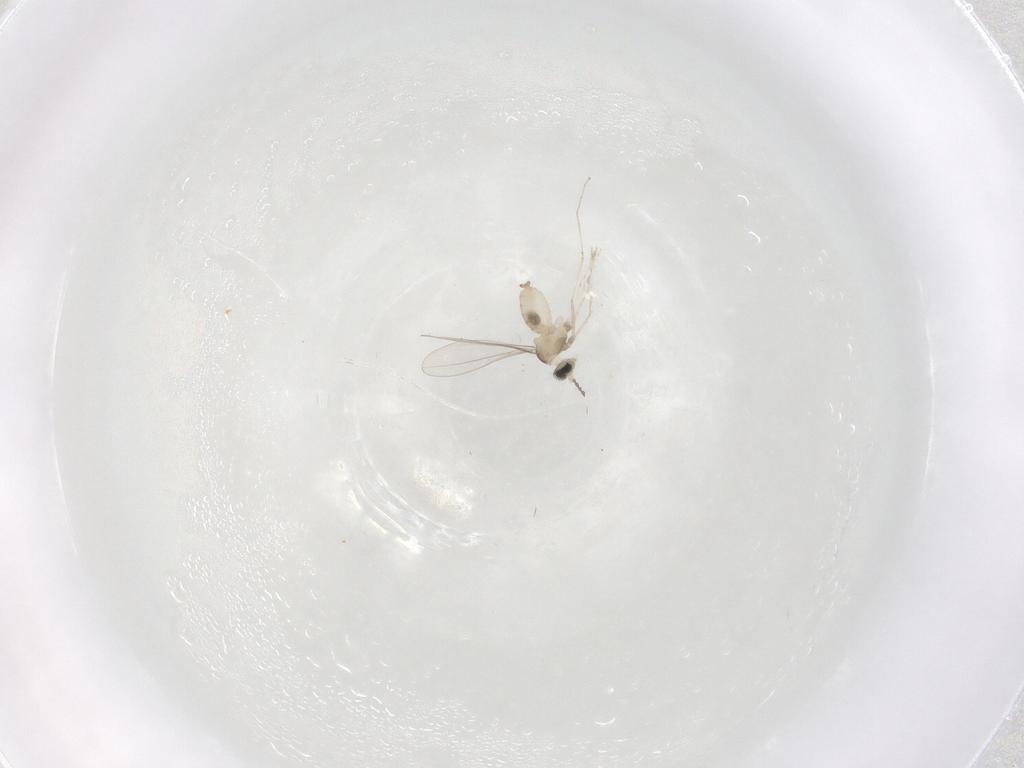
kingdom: Animalia
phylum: Arthropoda
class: Insecta
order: Diptera
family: Cecidomyiidae
